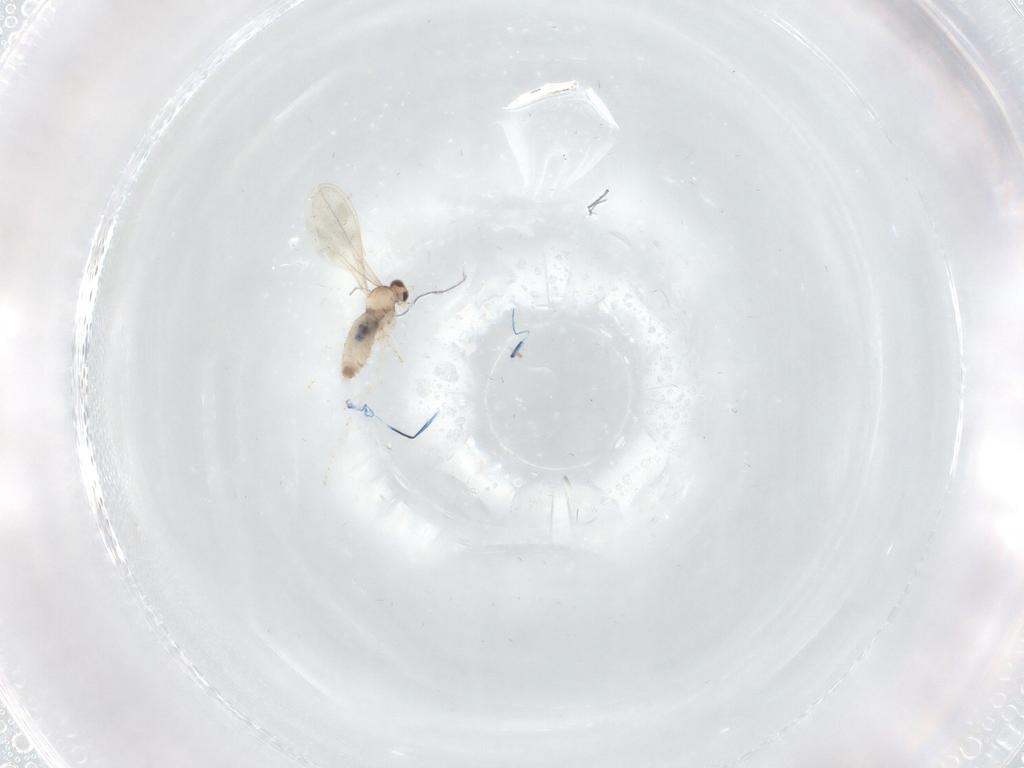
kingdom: Animalia
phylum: Arthropoda
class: Insecta
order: Diptera
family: Cecidomyiidae
